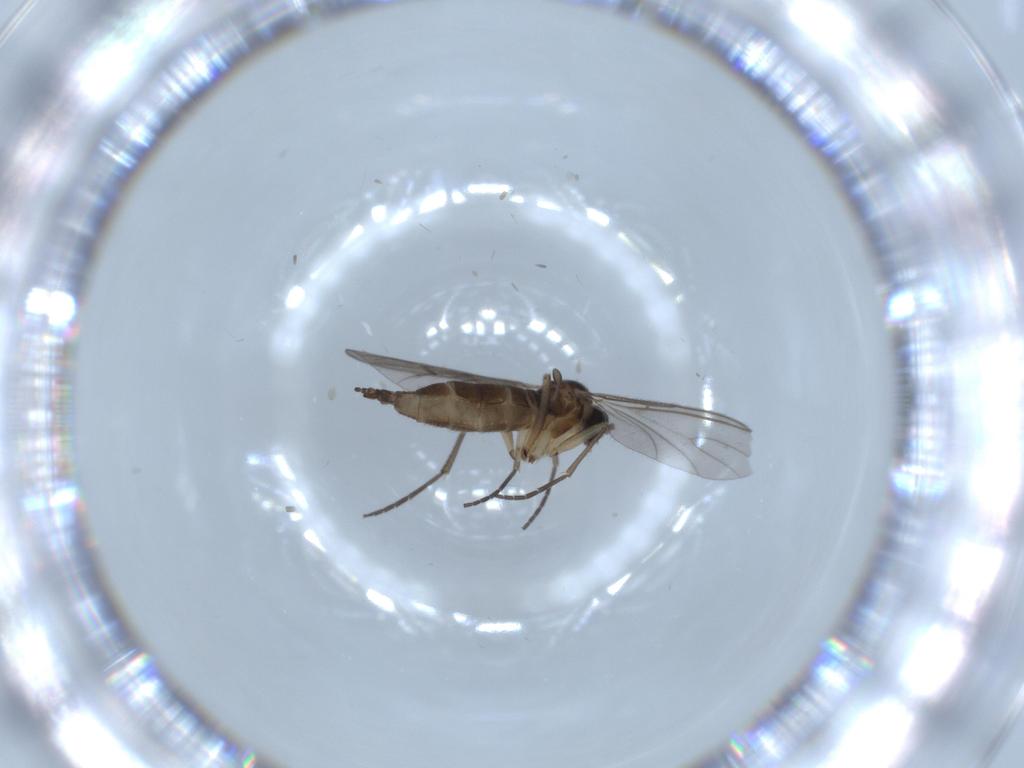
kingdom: Animalia
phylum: Arthropoda
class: Insecta
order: Diptera
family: Sciaridae
